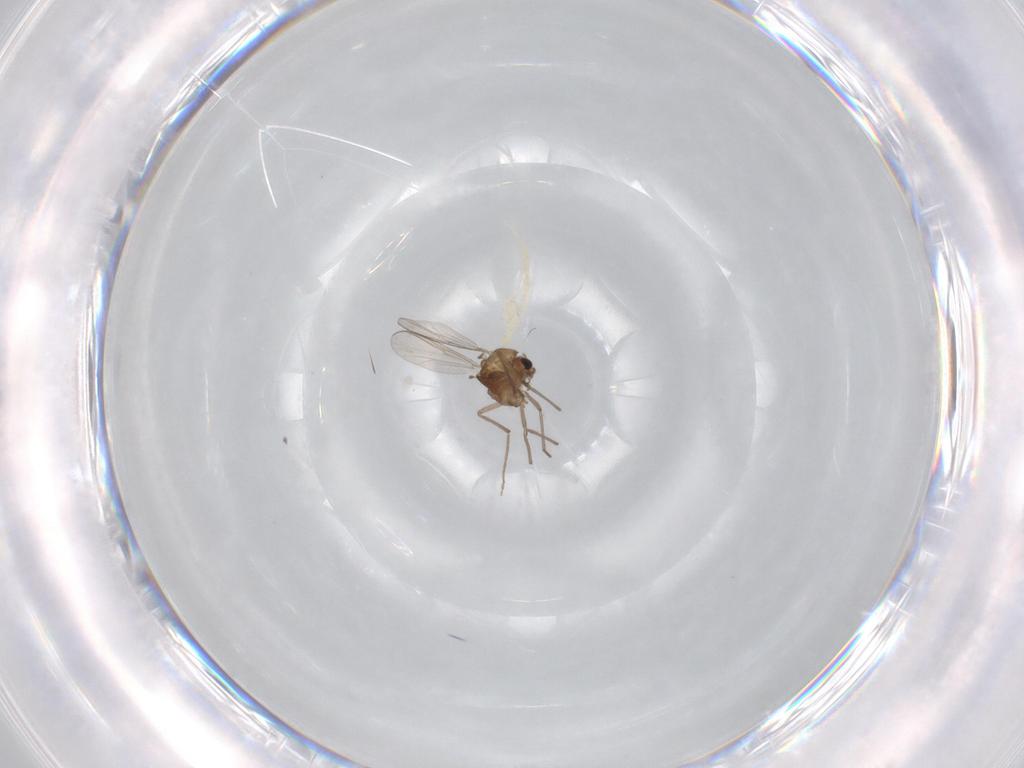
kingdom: Animalia
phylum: Arthropoda
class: Insecta
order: Diptera
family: Chironomidae
